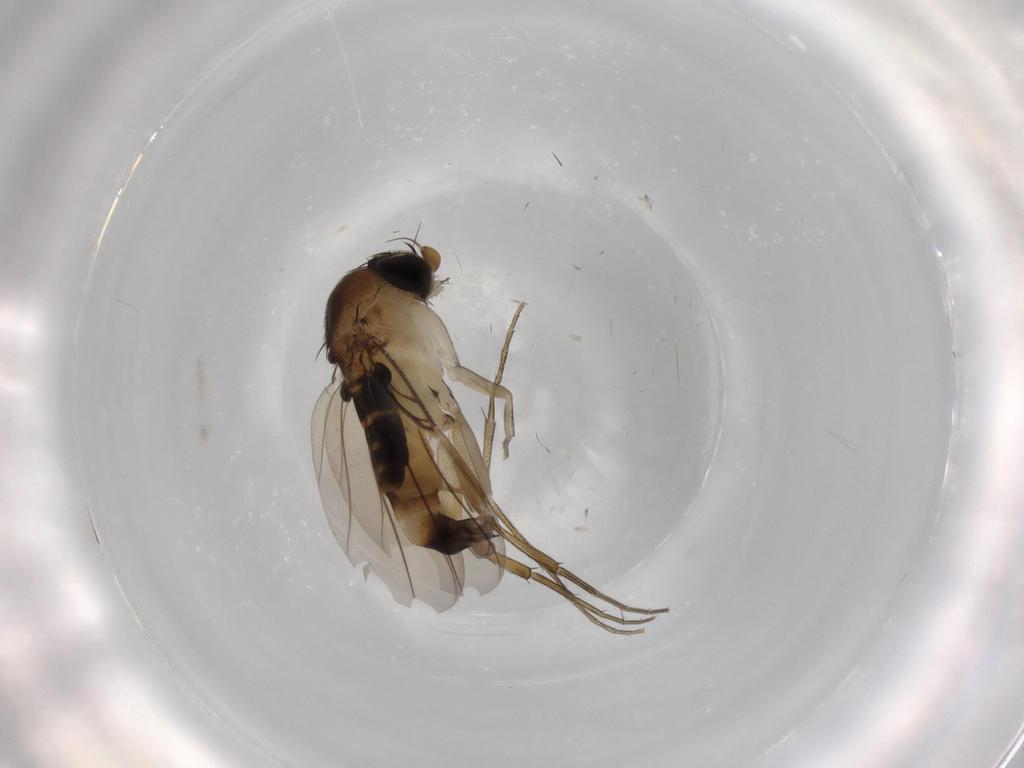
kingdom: Animalia
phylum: Arthropoda
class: Insecta
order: Diptera
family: Phoridae
